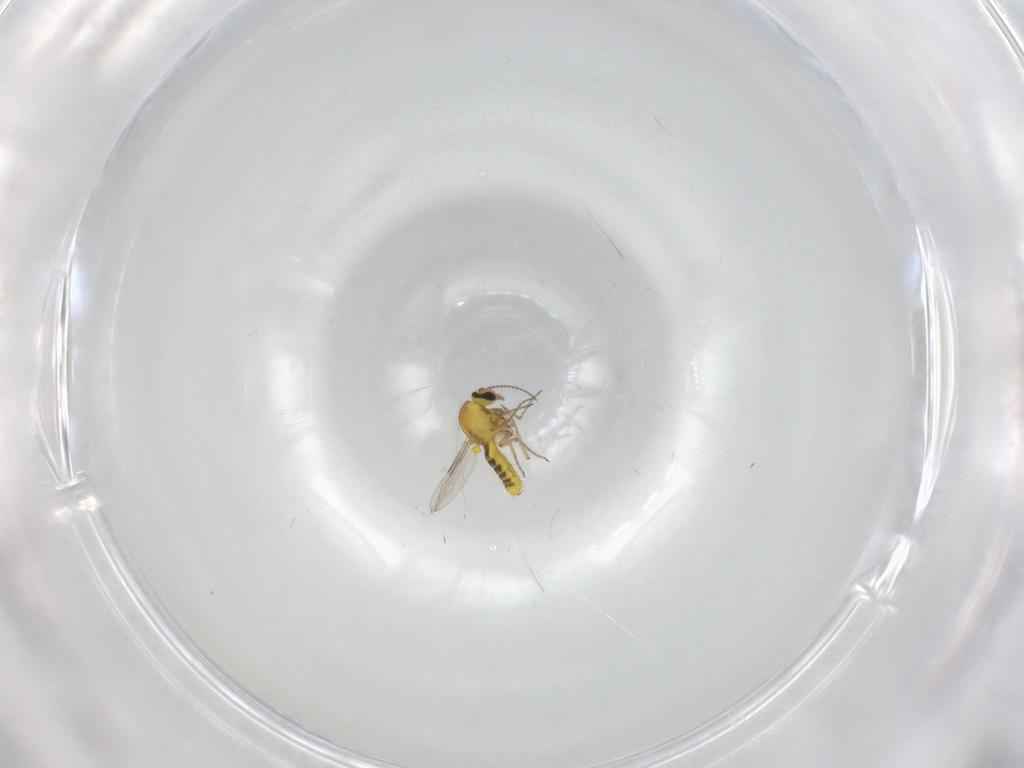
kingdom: Animalia
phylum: Arthropoda
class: Insecta
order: Diptera
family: Ceratopogonidae
